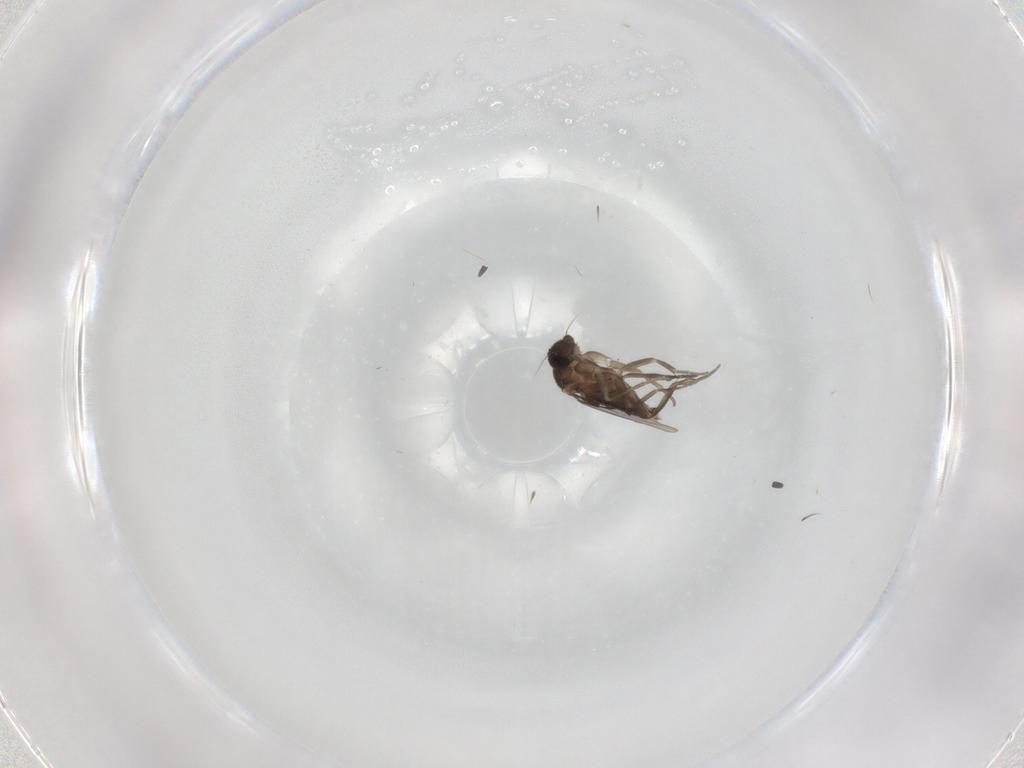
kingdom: Animalia
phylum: Arthropoda
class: Insecta
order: Diptera
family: Phoridae
